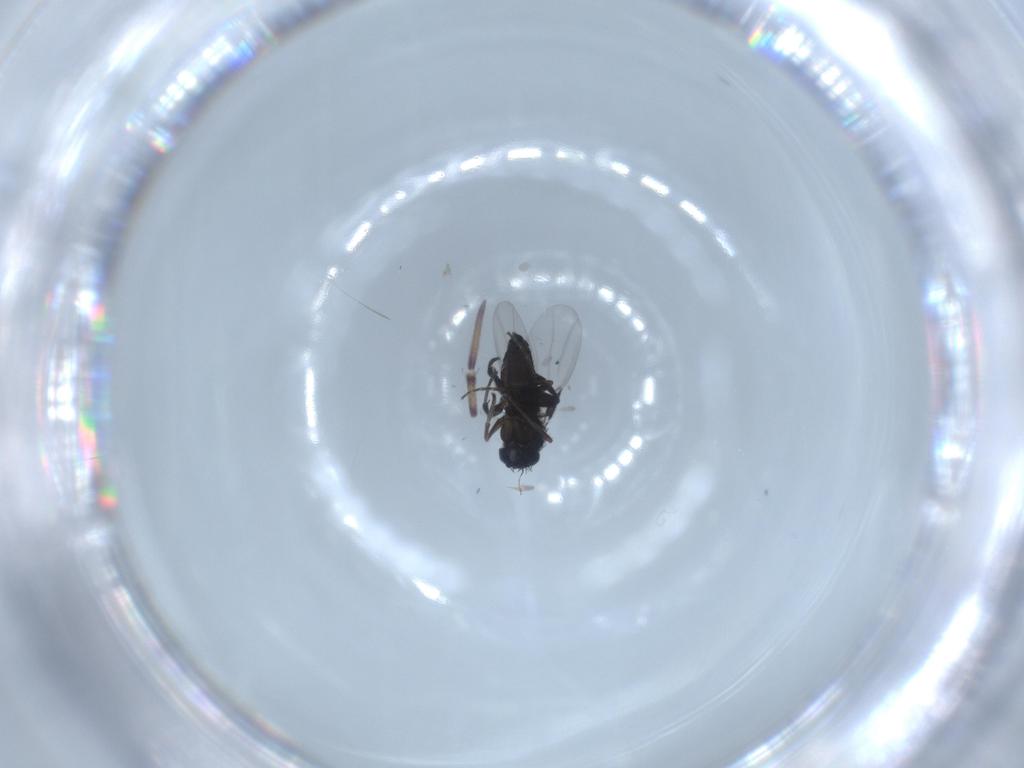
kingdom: Animalia
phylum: Arthropoda
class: Insecta
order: Diptera
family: Phoridae
